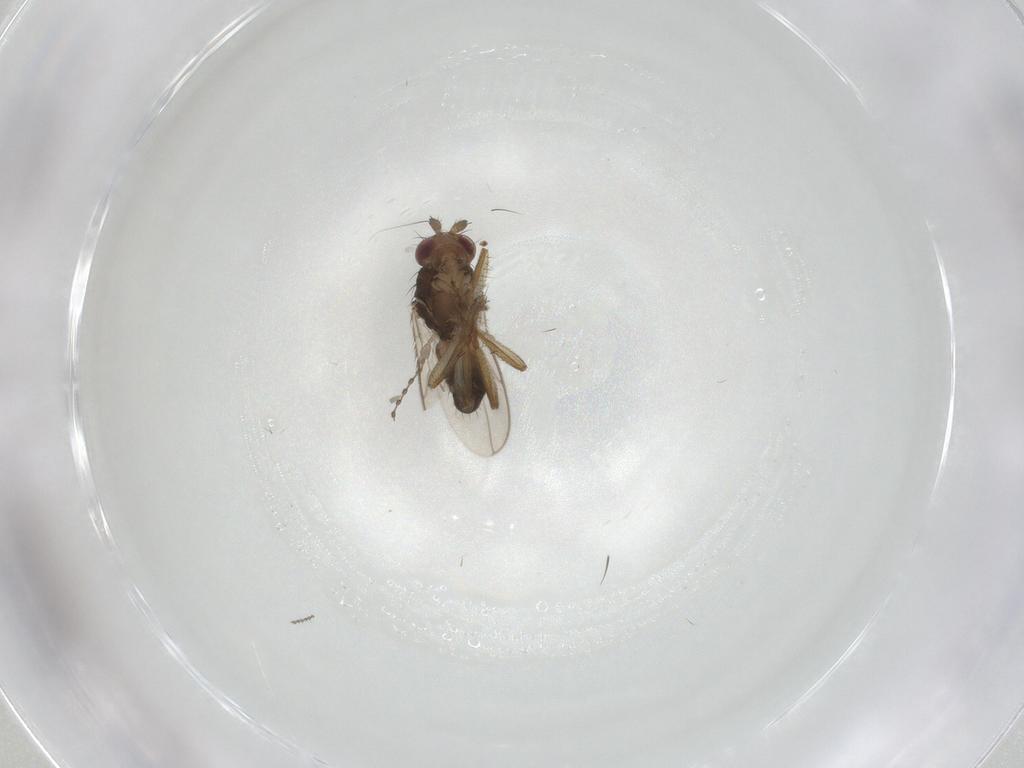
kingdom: Animalia
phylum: Arthropoda
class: Insecta
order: Diptera
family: Sphaeroceridae
